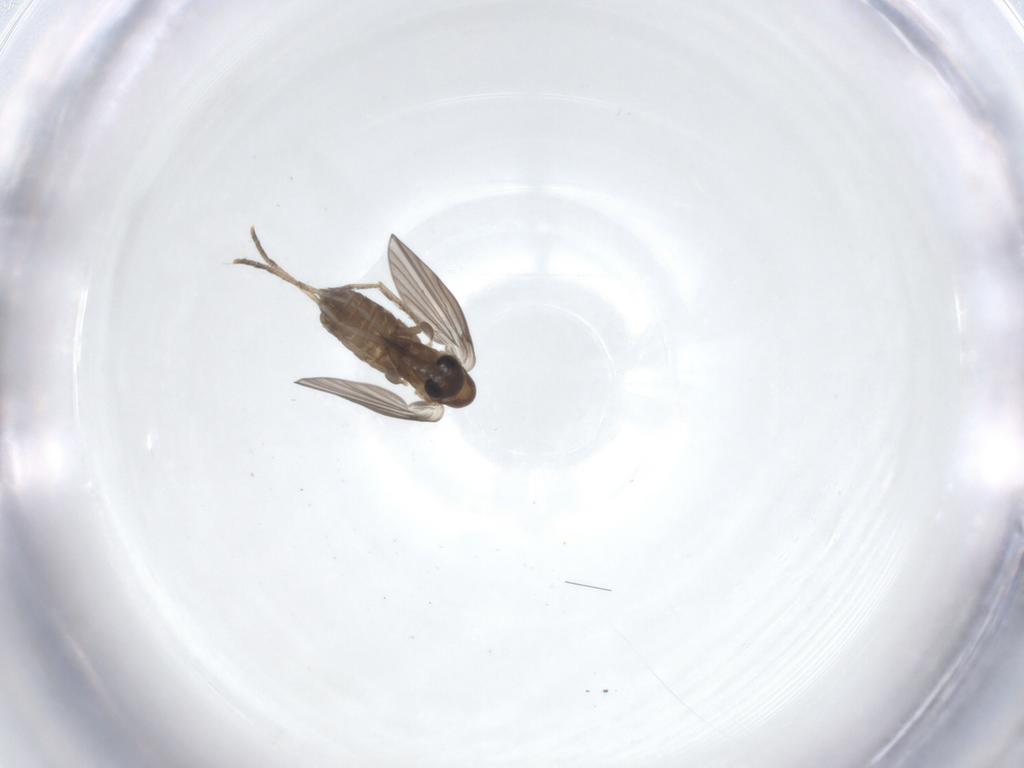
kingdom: Animalia
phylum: Arthropoda
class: Insecta
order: Diptera
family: Psychodidae
